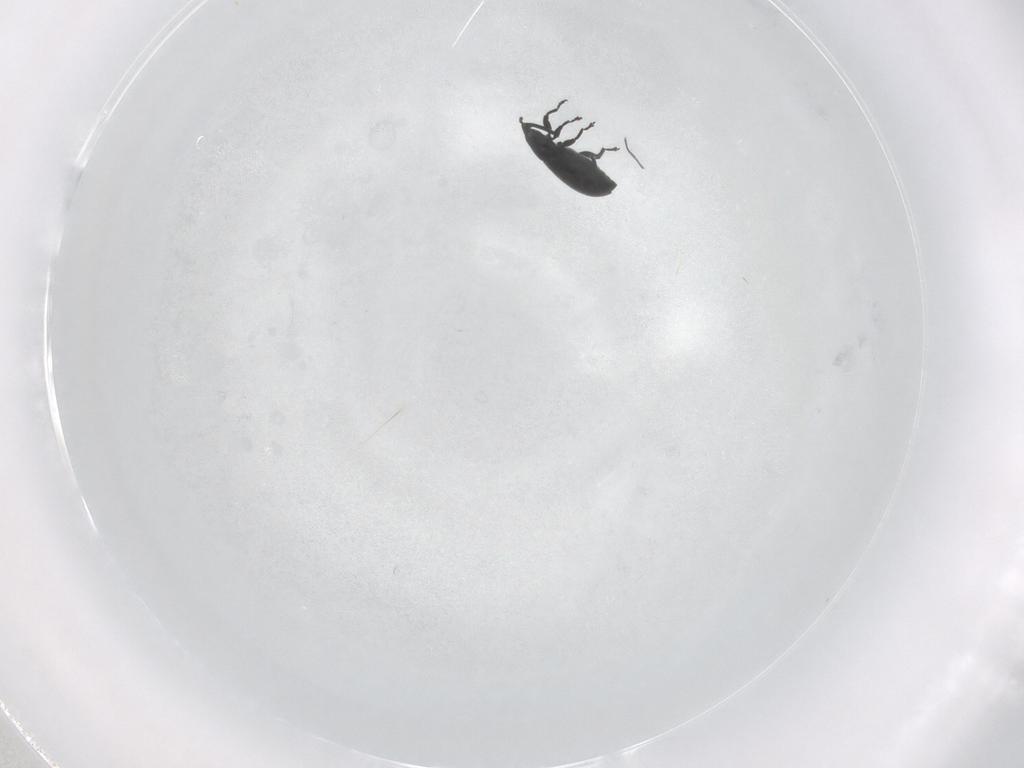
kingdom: Animalia
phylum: Arthropoda
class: Insecta
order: Coleoptera
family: Curculionidae
